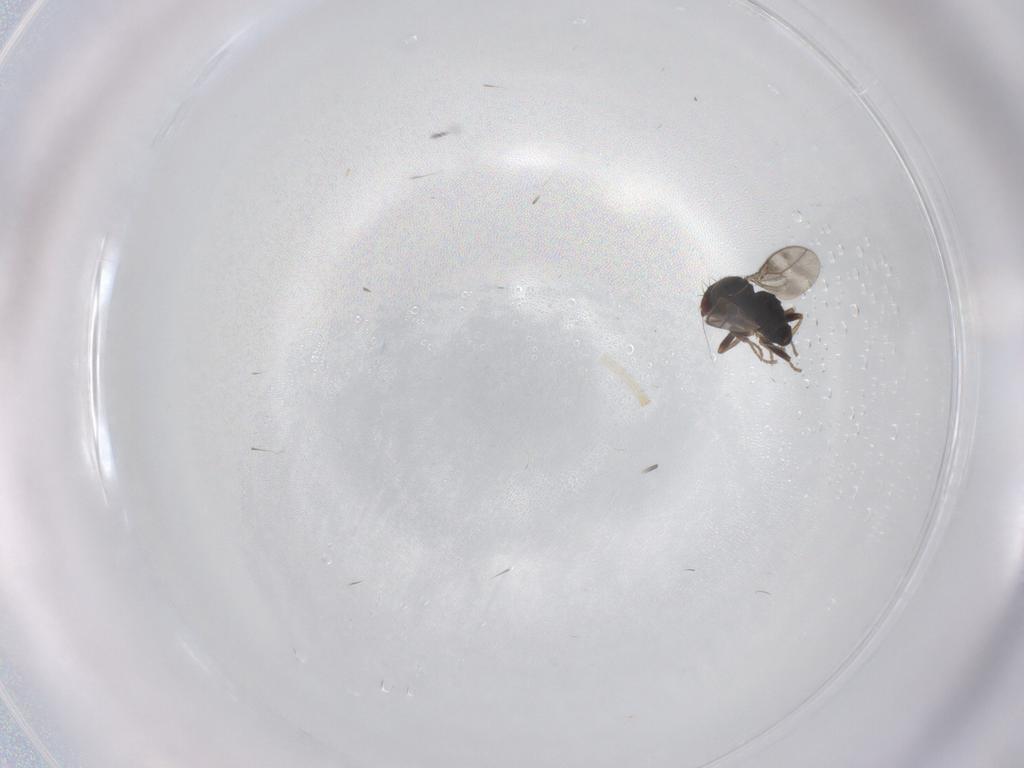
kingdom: Animalia
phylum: Arthropoda
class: Insecta
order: Diptera
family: Sphaeroceridae
